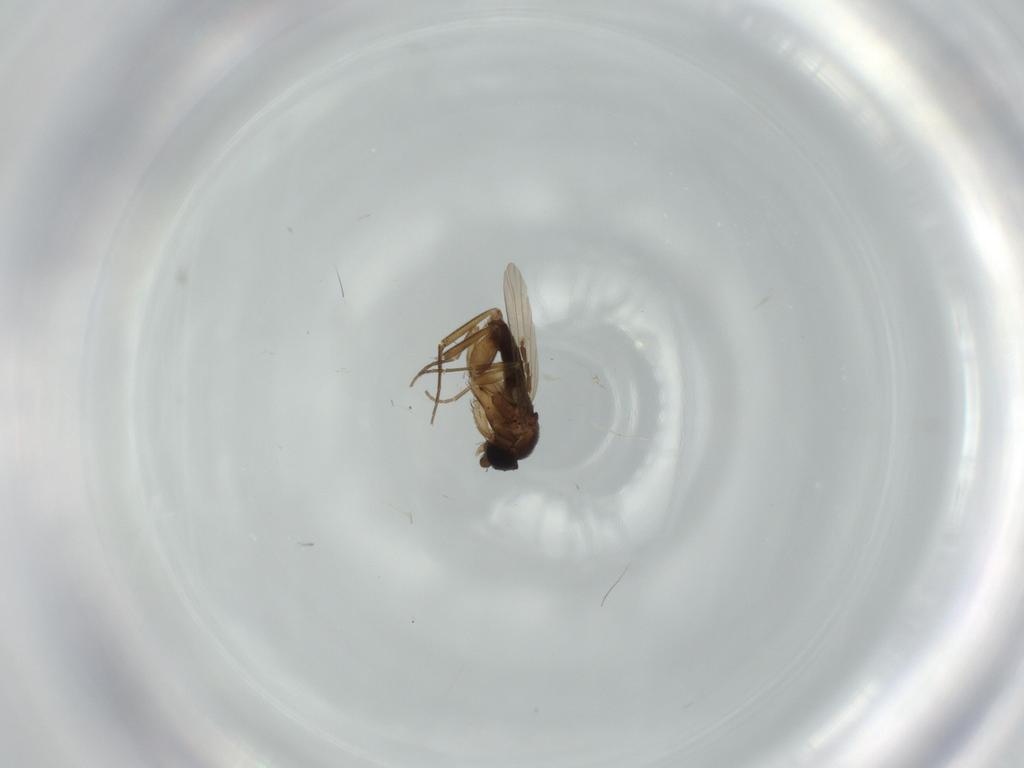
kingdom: Animalia
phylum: Arthropoda
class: Insecta
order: Diptera
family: Phoridae
